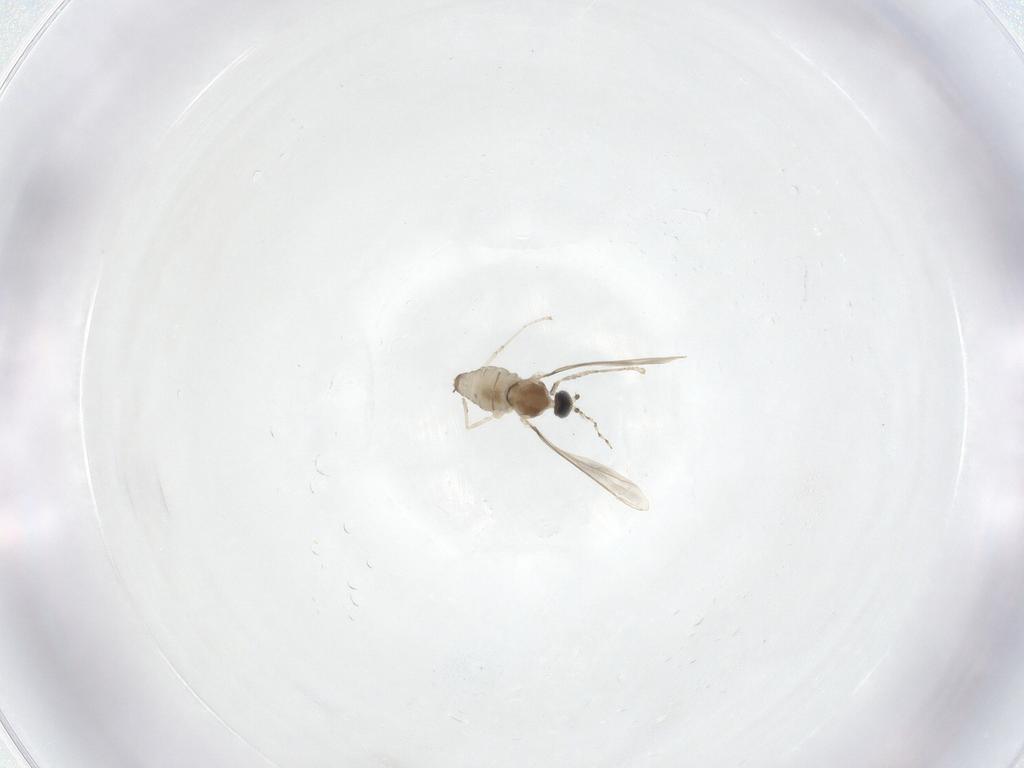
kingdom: Animalia
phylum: Arthropoda
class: Insecta
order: Diptera
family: Cecidomyiidae
